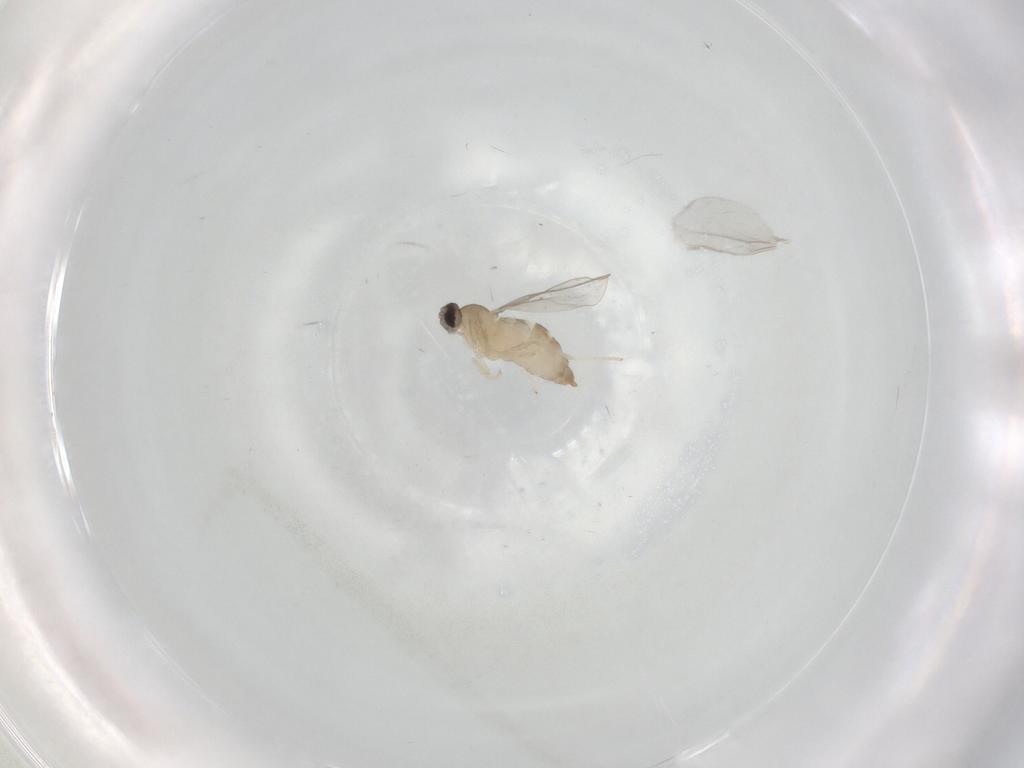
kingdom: Animalia
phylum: Arthropoda
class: Insecta
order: Diptera
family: Cecidomyiidae
